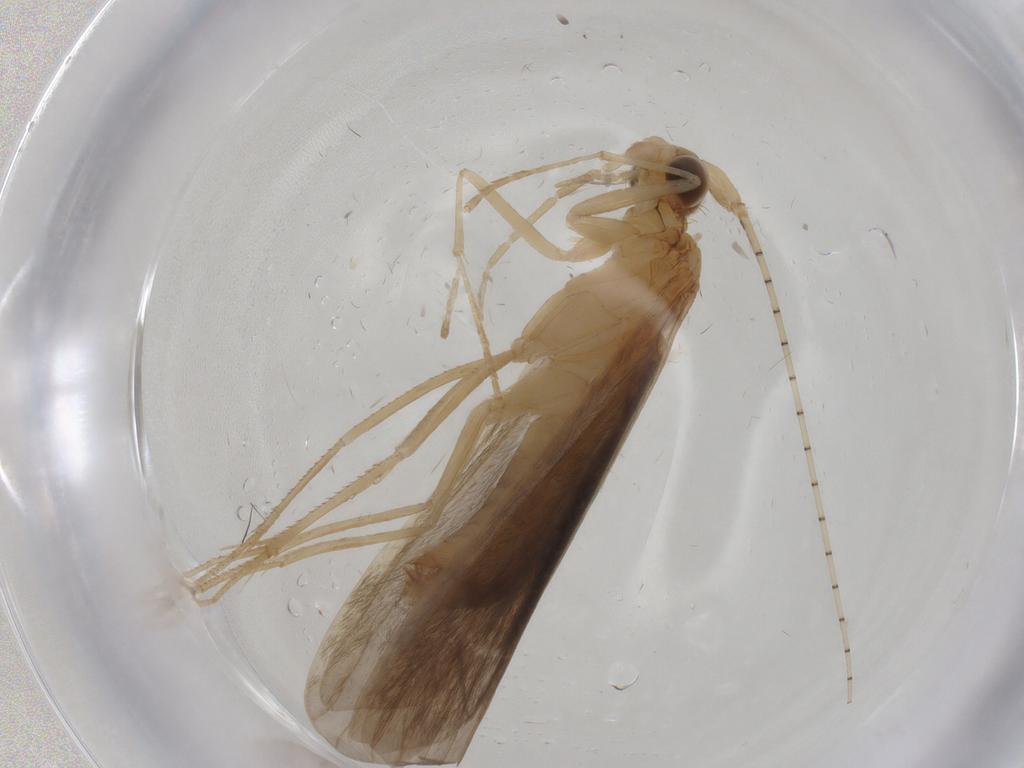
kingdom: Animalia
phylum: Arthropoda
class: Insecta
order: Trichoptera
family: Leptoceridae
